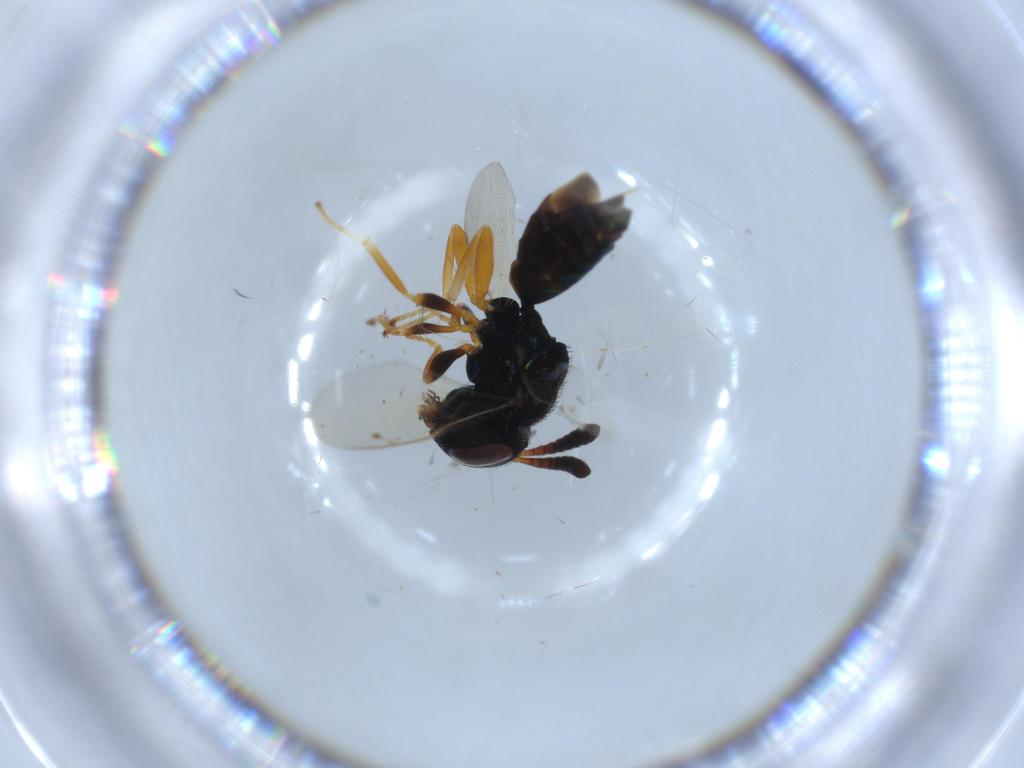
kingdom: Animalia
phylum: Arthropoda
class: Insecta
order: Hymenoptera
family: Agaonidae
